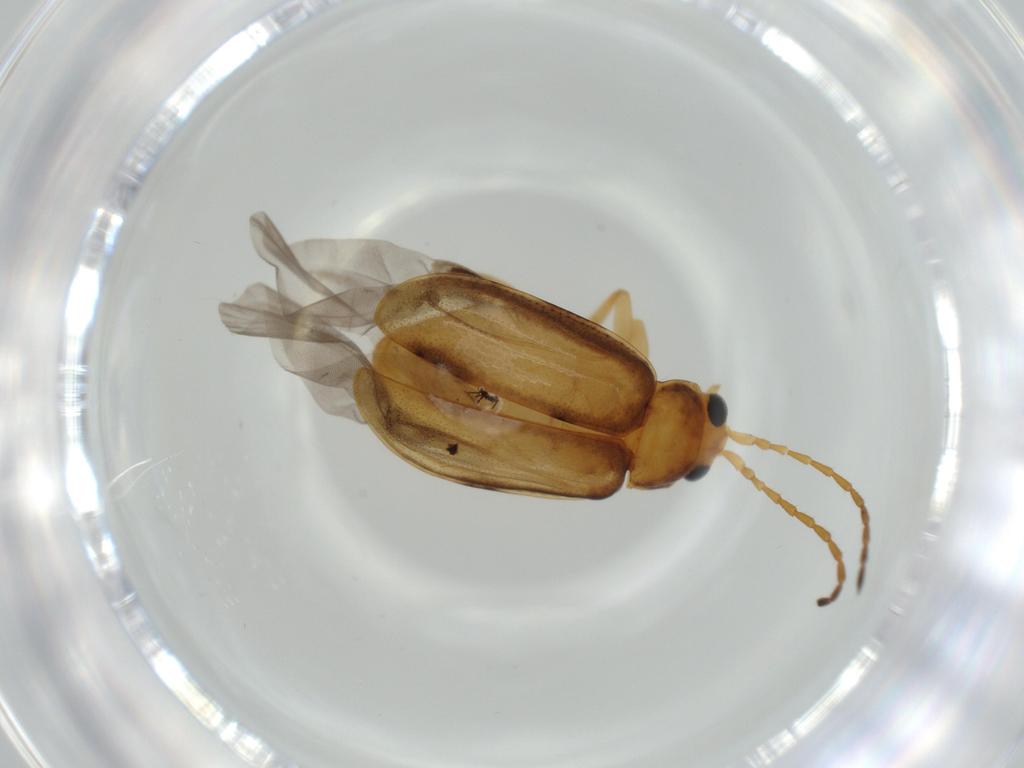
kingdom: Animalia
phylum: Arthropoda
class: Insecta
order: Coleoptera
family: Chrysomelidae
